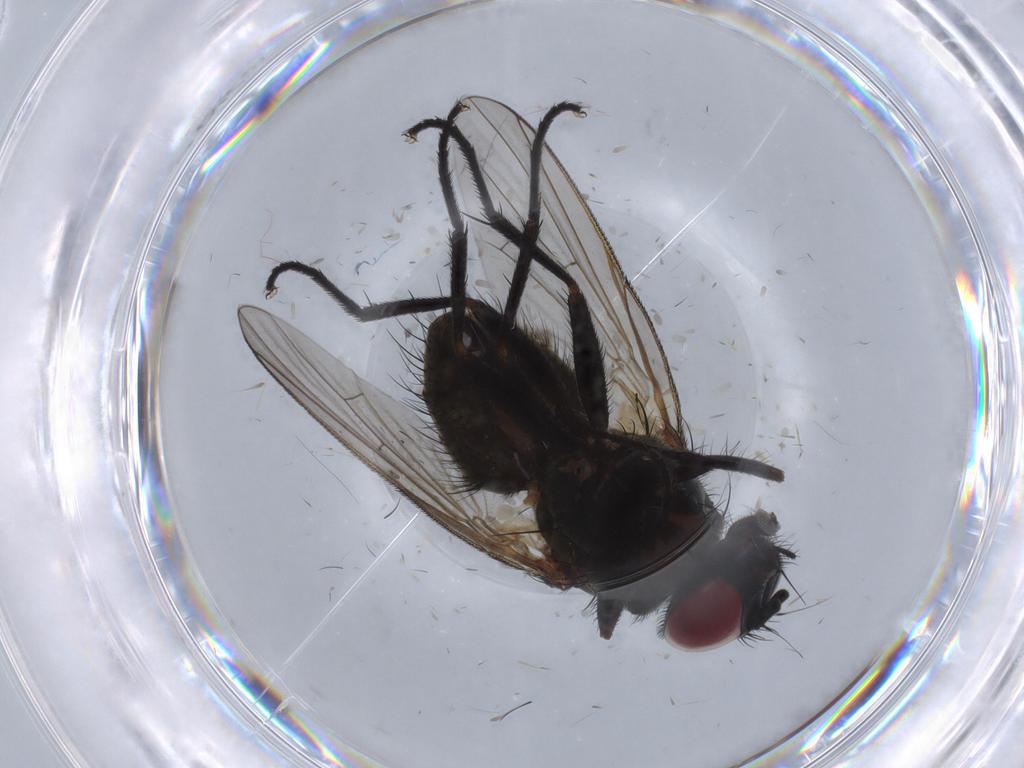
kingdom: Animalia
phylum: Arthropoda
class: Insecta
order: Diptera
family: Muscidae
